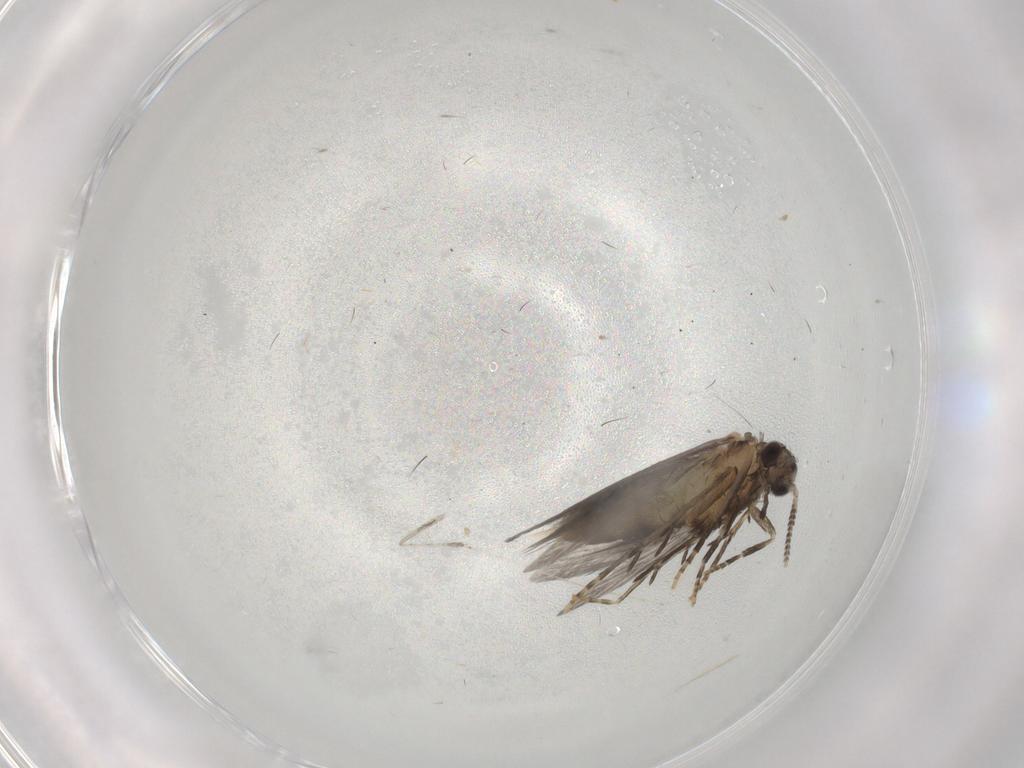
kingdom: Animalia
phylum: Arthropoda
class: Insecta
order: Trichoptera
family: Hydroptilidae
